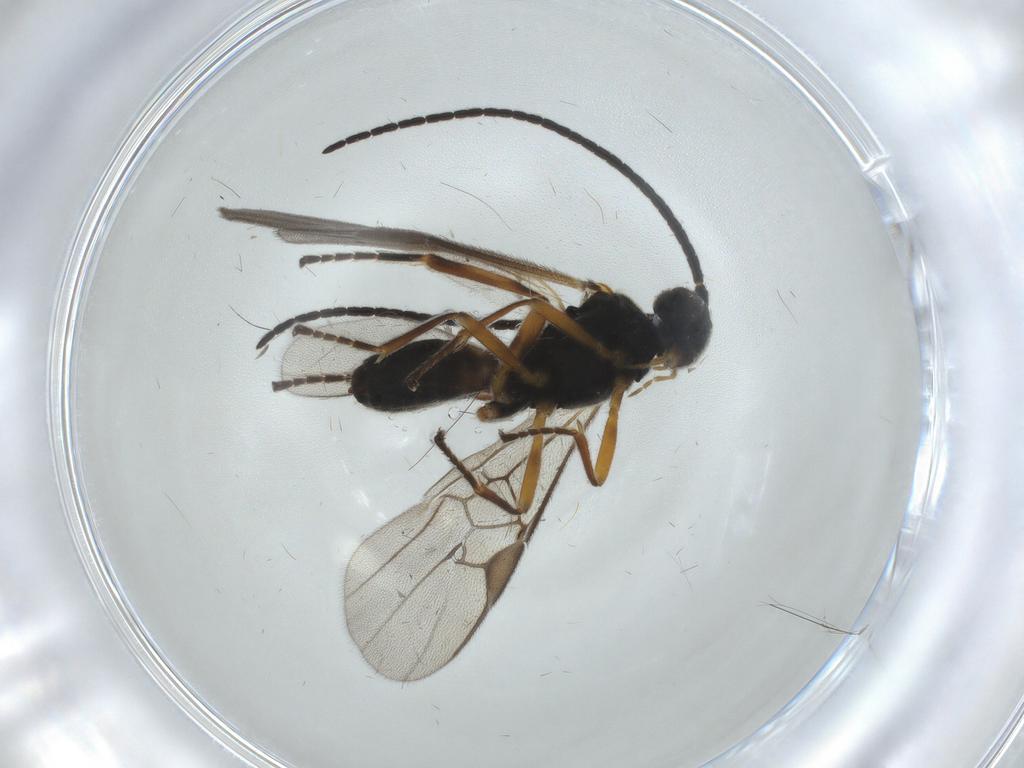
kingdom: Animalia
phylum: Arthropoda
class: Insecta
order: Hymenoptera
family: Braconidae
